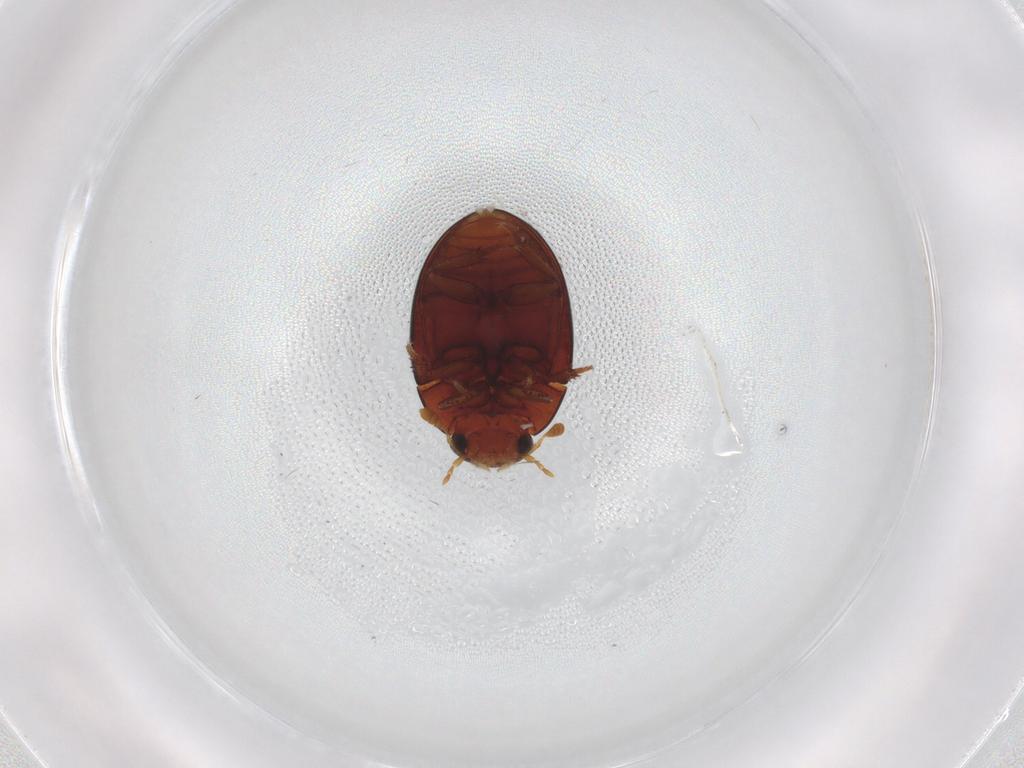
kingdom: Animalia
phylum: Arthropoda
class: Insecta
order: Coleoptera
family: Hydrophilidae
